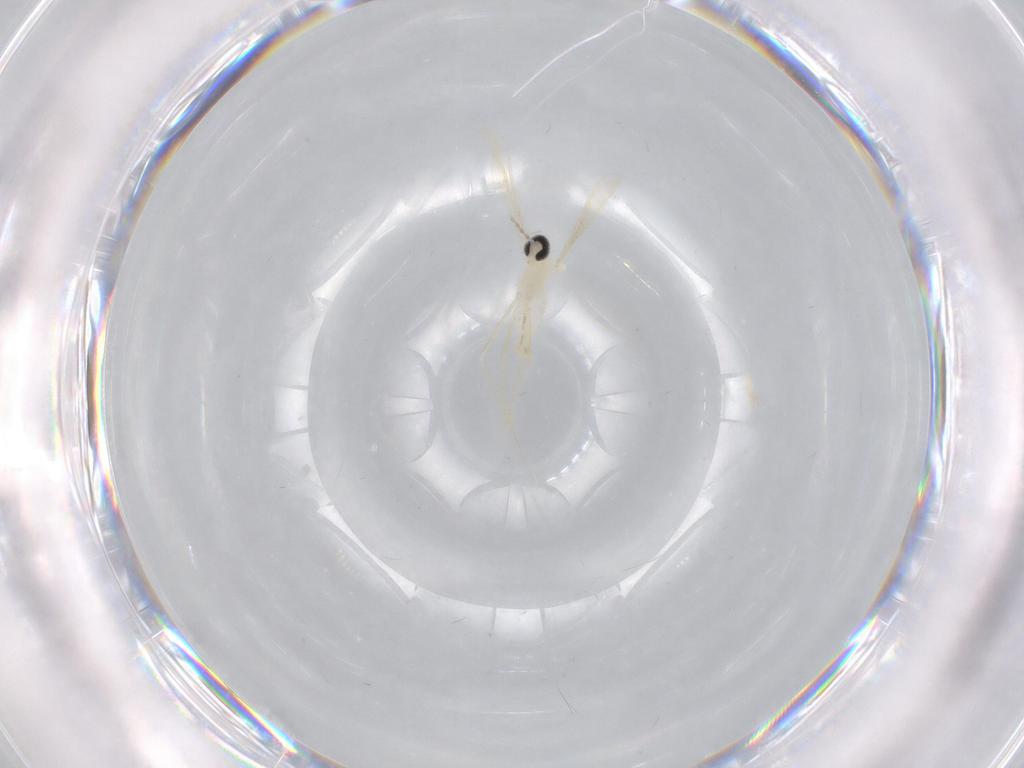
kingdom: Animalia
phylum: Arthropoda
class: Insecta
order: Diptera
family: Cecidomyiidae
